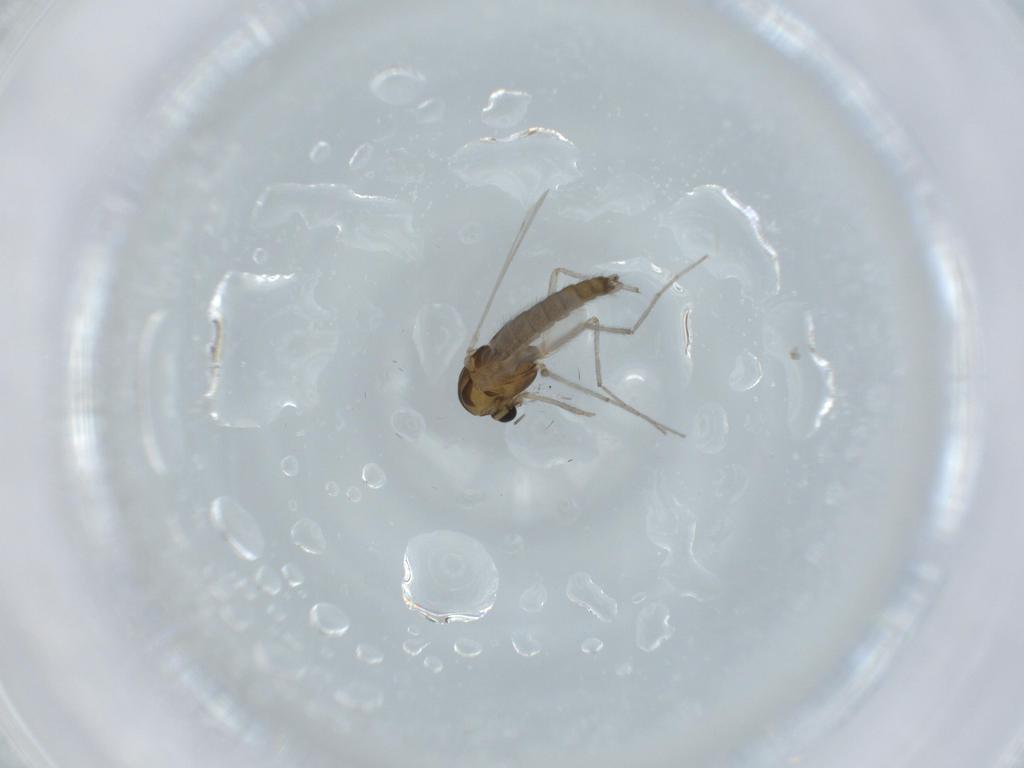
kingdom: Animalia
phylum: Arthropoda
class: Insecta
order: Diptera
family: Chironomidae
